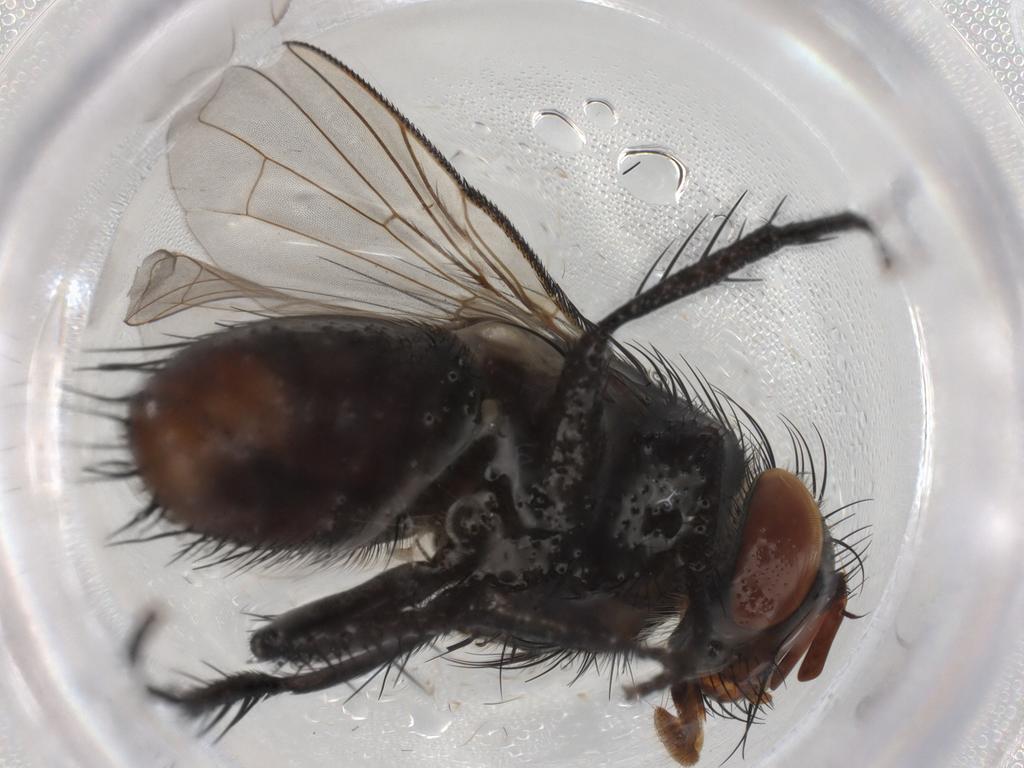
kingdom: Animalia
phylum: Arthropoda
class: Insecta
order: Diptera
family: Tachinidae
